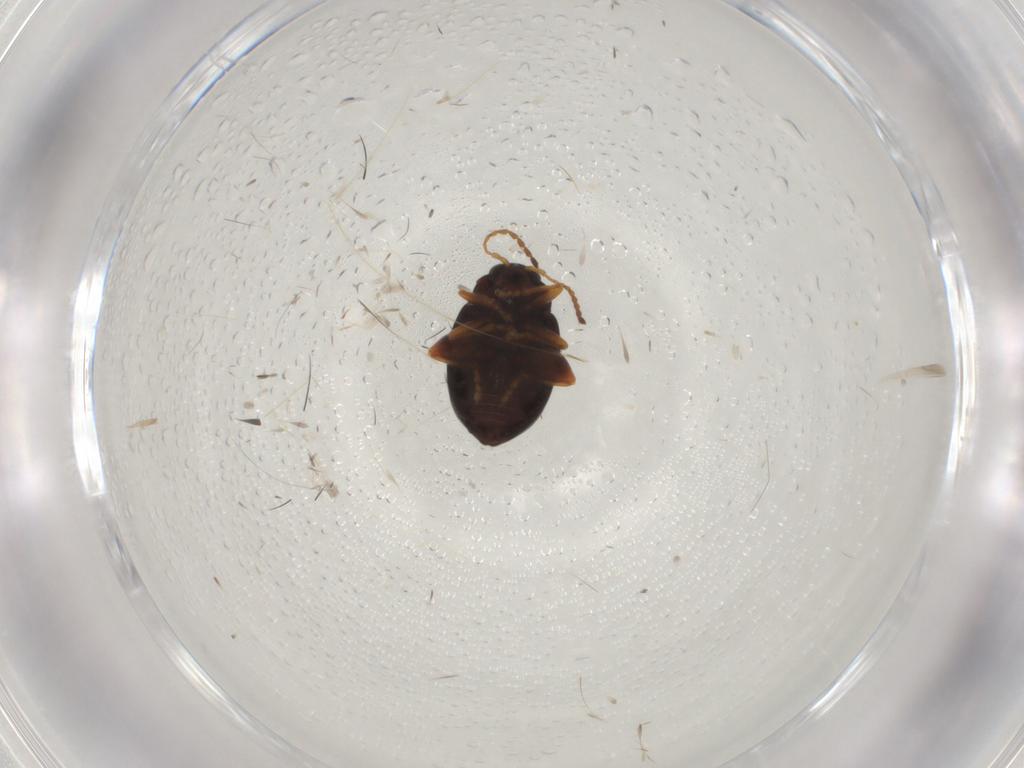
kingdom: Animalia
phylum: Arthropoda
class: Insecta
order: Coleoptera
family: Chrysomelidae
